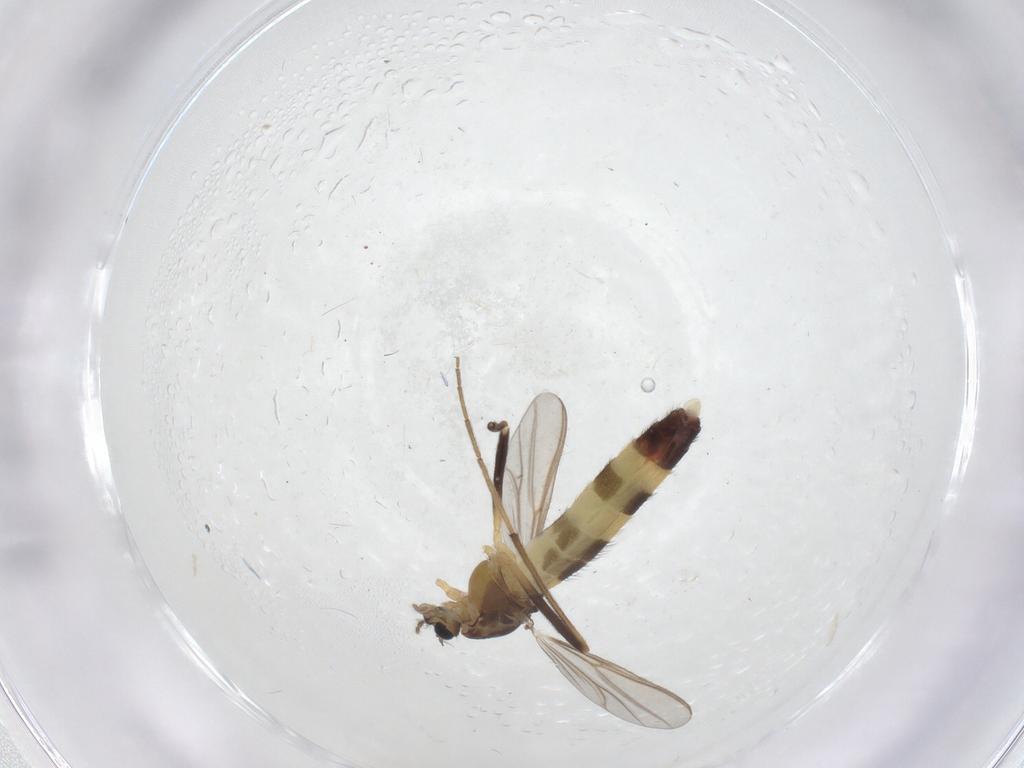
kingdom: Animalia
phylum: Arthropoda
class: Insecta
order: Diptera
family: Chironomidae
